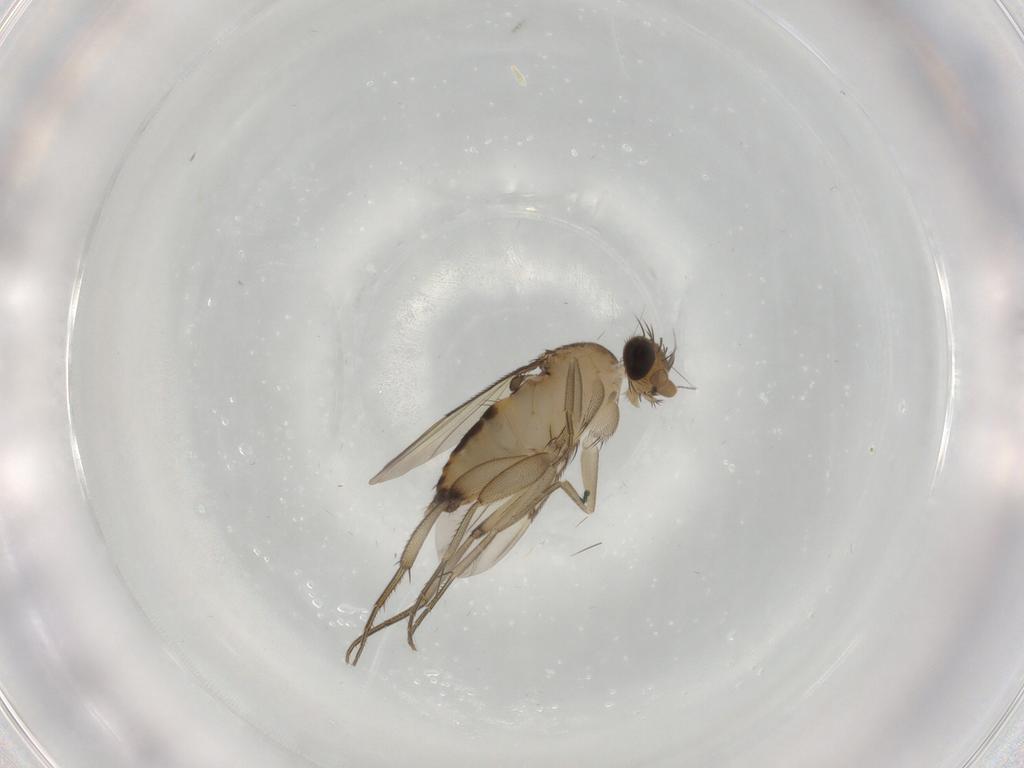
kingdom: Animalia
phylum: Arthropoda
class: Insecta
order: Diptera
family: Phoridae
